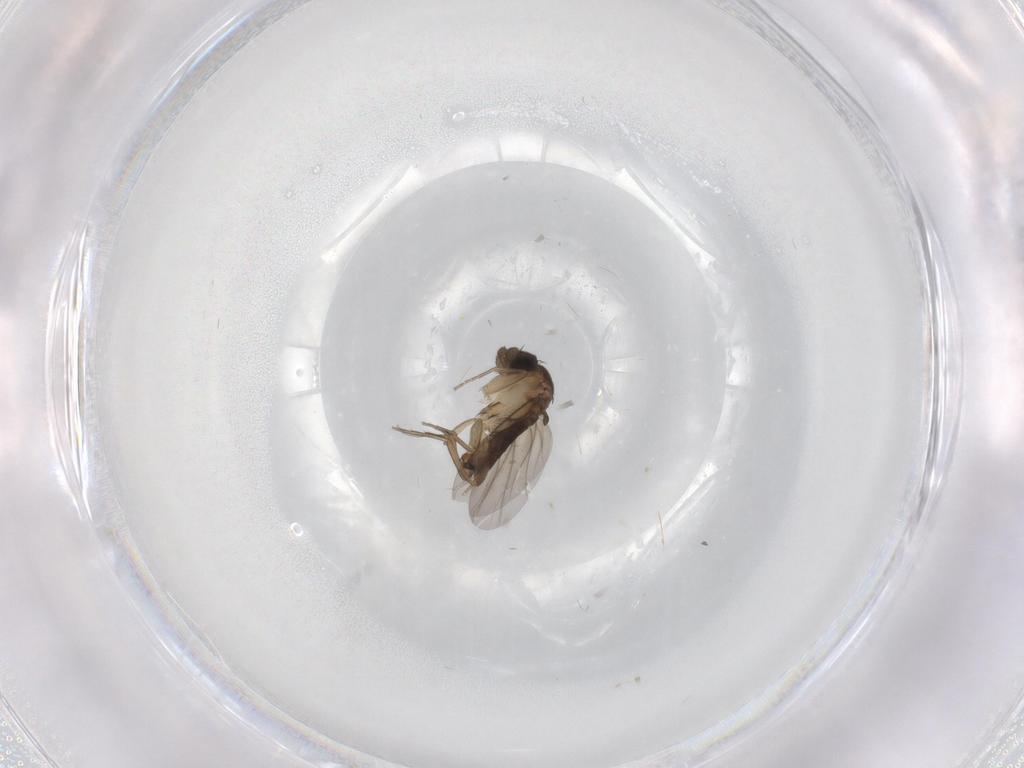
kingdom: Animalia
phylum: Arthropoda
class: Insecta
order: Diptera
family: Phoridae
